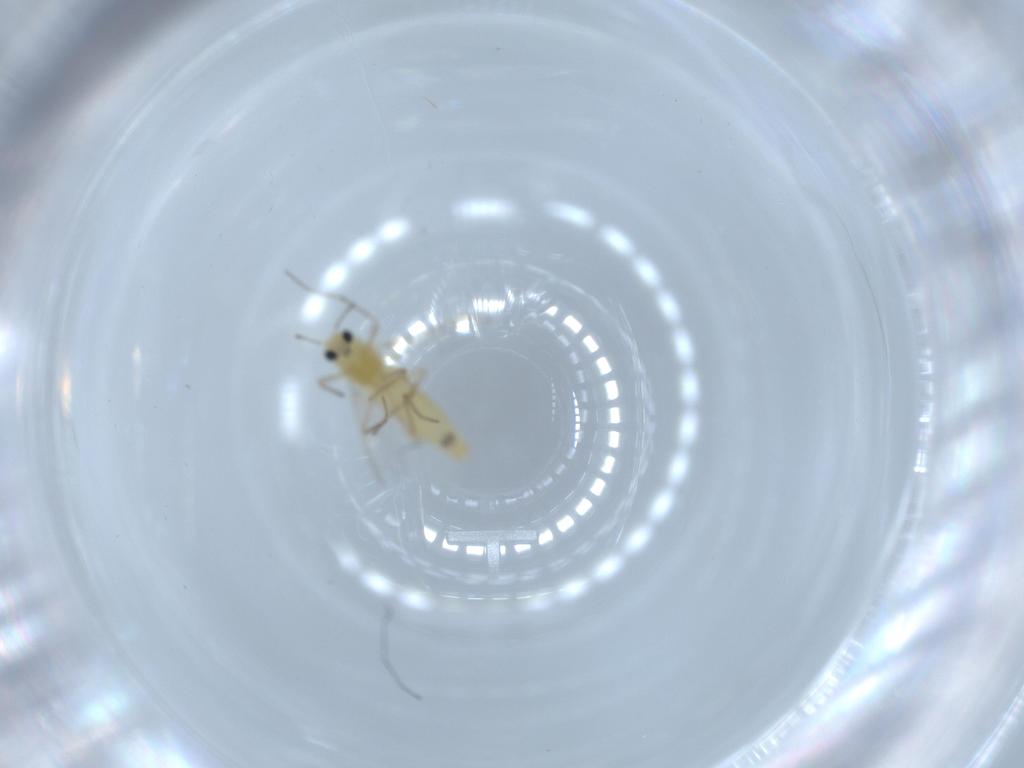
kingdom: Animalia
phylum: Arthropoda
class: Insecta
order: Diptera
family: Chironomidae
